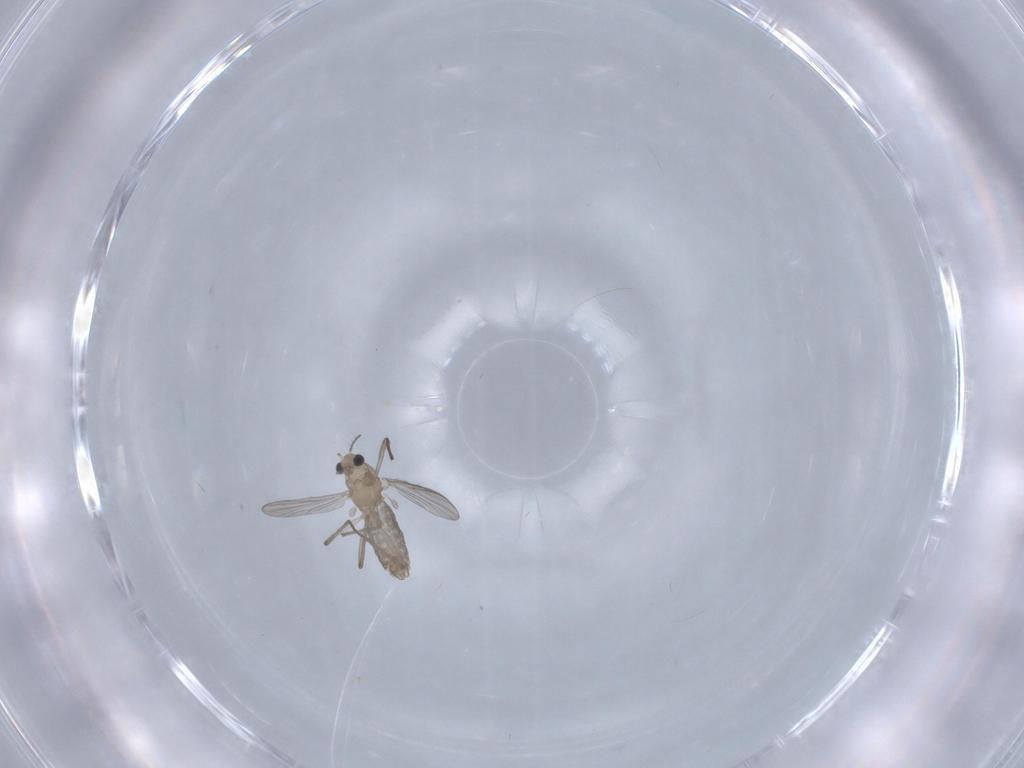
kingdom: Animalia
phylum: Arthropoda
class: Insecta
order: Diptera
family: Chironomidae
